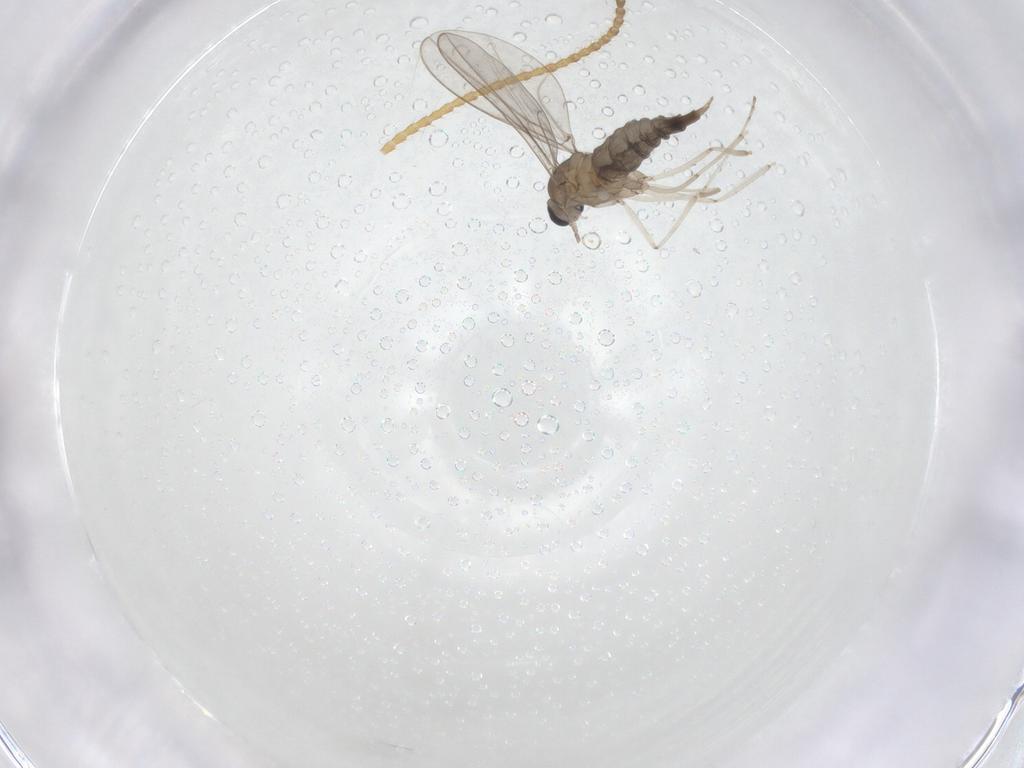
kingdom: Animalia
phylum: Arthropoda
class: Insecta
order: Diptera
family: Cecidomyiidae
